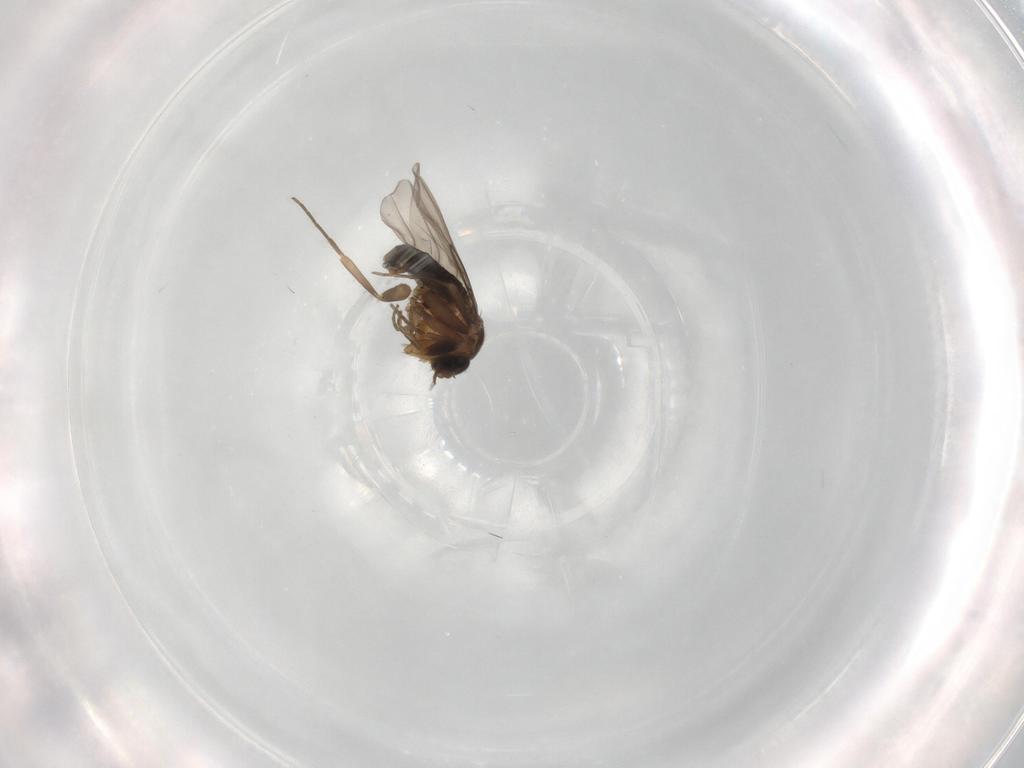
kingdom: Animalia
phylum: Arthropoda
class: Insecta
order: Diptera
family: Phoridae
